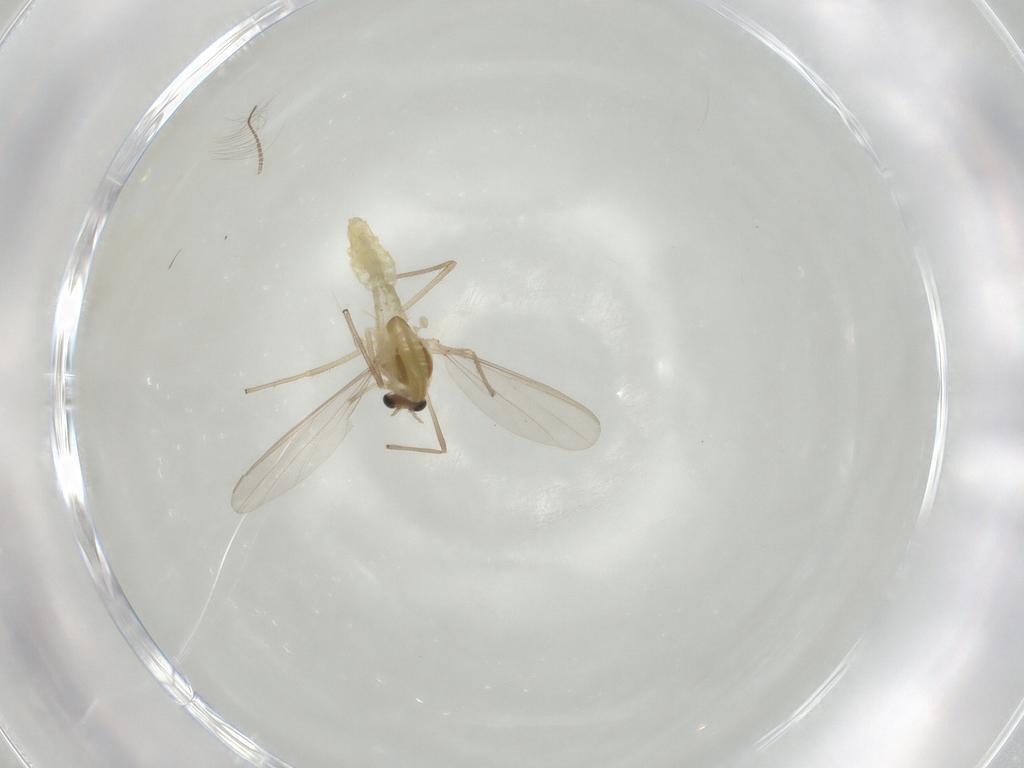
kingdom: Animalia
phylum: Arthropoda
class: Insecta
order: Diptera
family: Chironomidae
